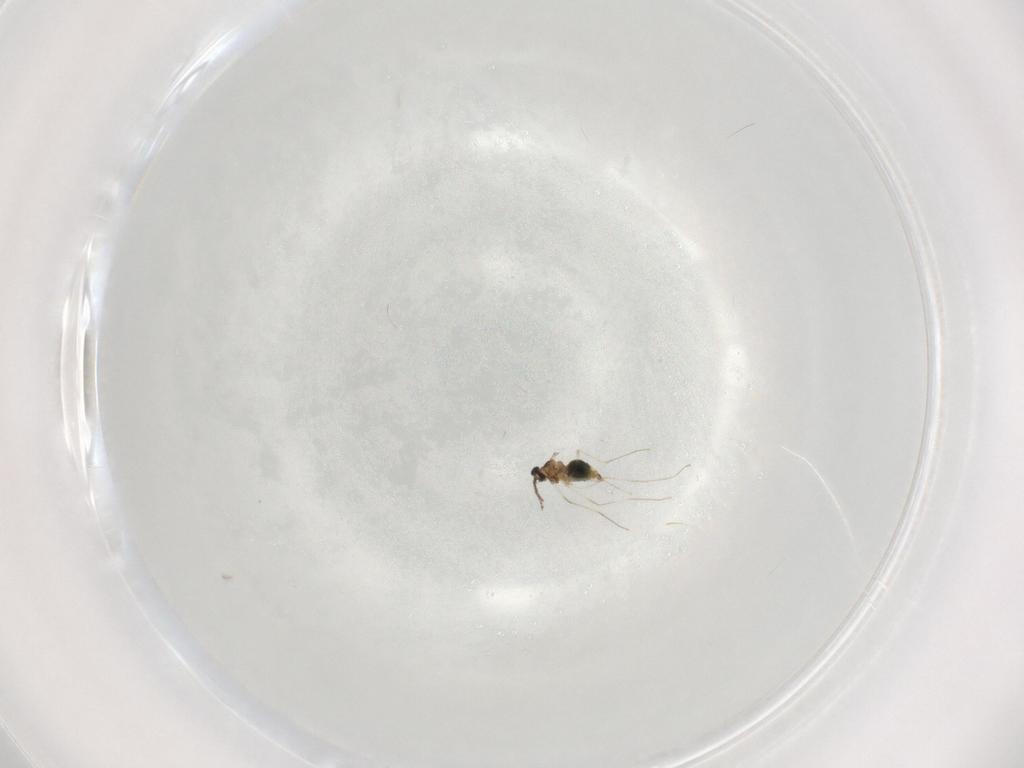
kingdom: Animalia
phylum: Arthropoda
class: Insecta
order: Diptera
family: Cecidomyiidae
